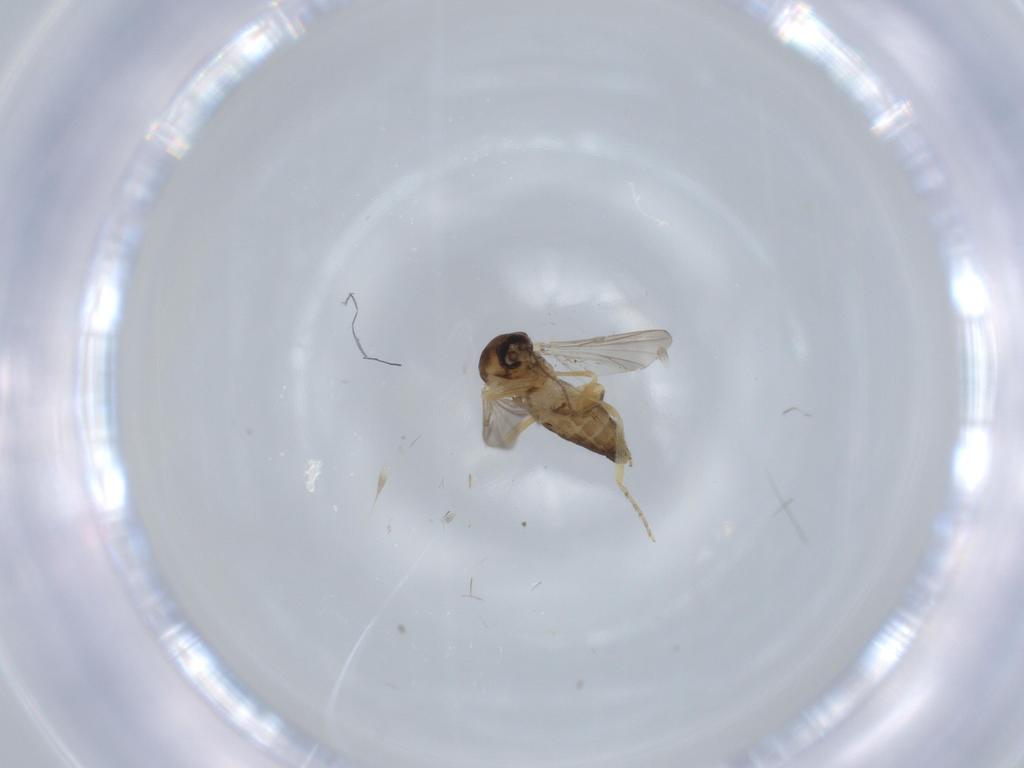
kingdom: Animalia
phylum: Arthropoda
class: Insecta
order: Diptera
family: Ceratopogonidae
